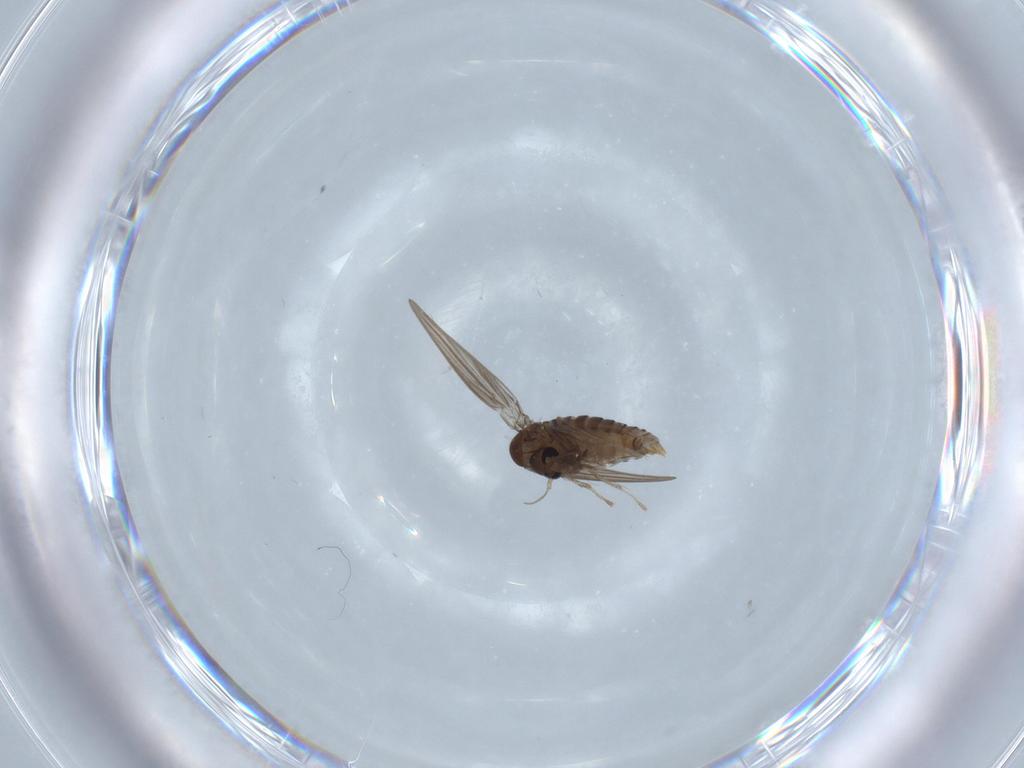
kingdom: Animalia
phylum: Arthropoda
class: Insecta
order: Diptera
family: Psychodidae
